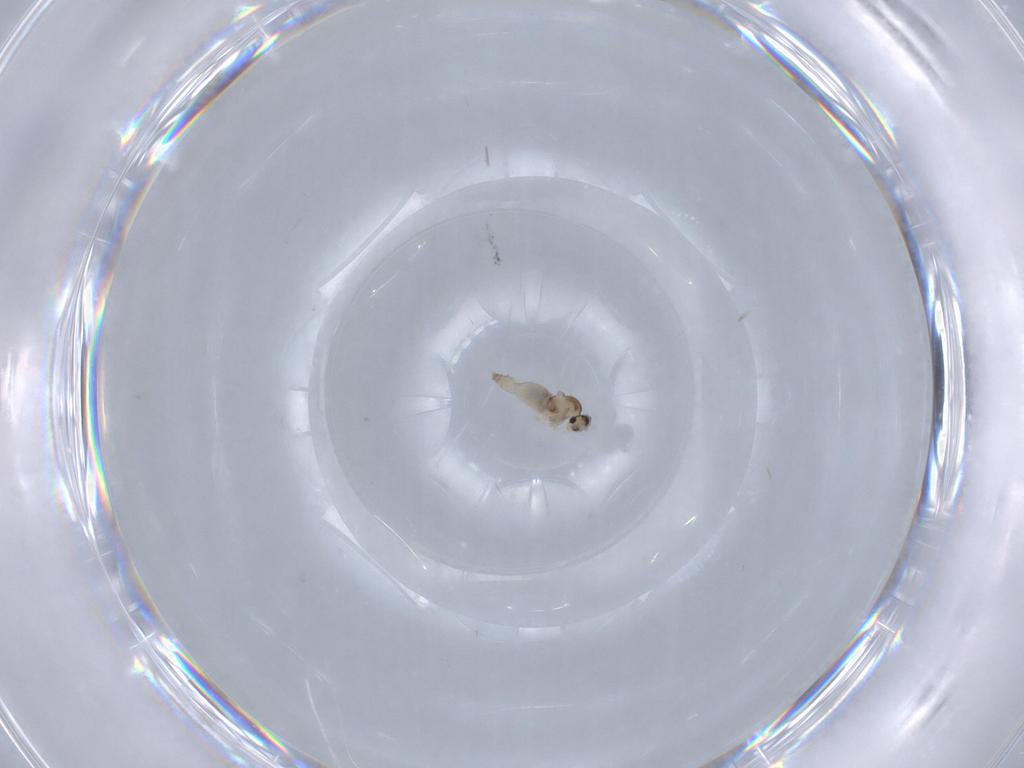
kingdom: Animalia
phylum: Arthropoda
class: Insecta
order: Diptera
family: Cecidomyiidae
